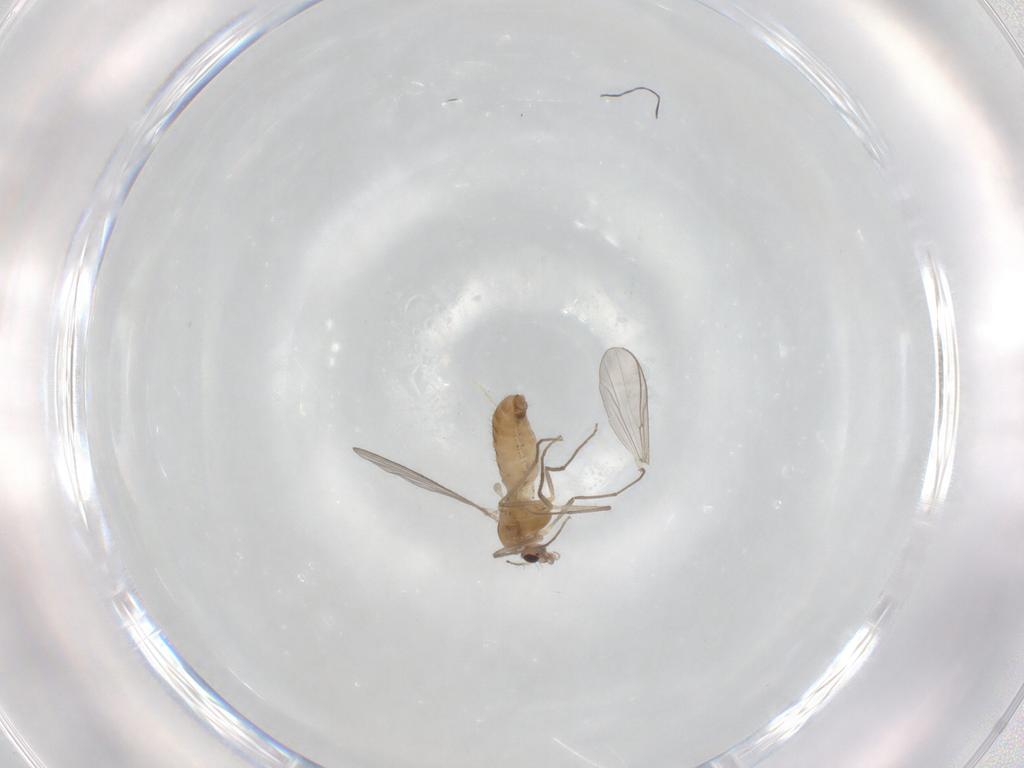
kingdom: Animalia
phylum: Arthropoda
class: Insecta
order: Diptera
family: Chironomidae
